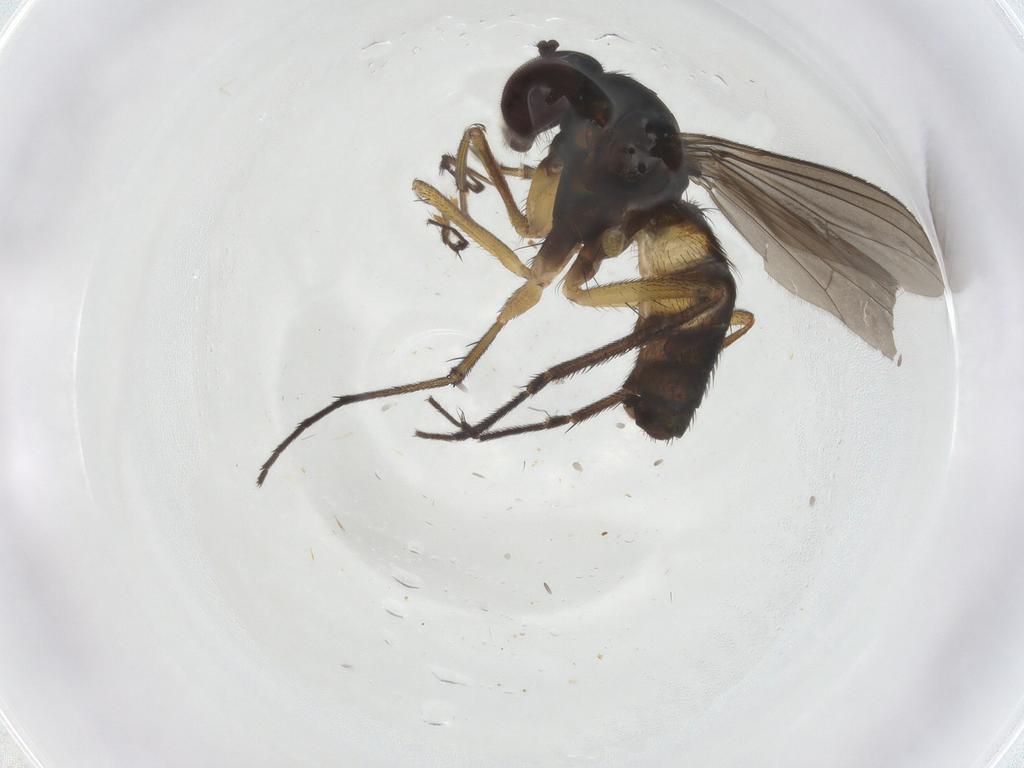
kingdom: Animalia
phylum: Arthropoda
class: Insecta
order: Diptera
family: Dolichopodidae
